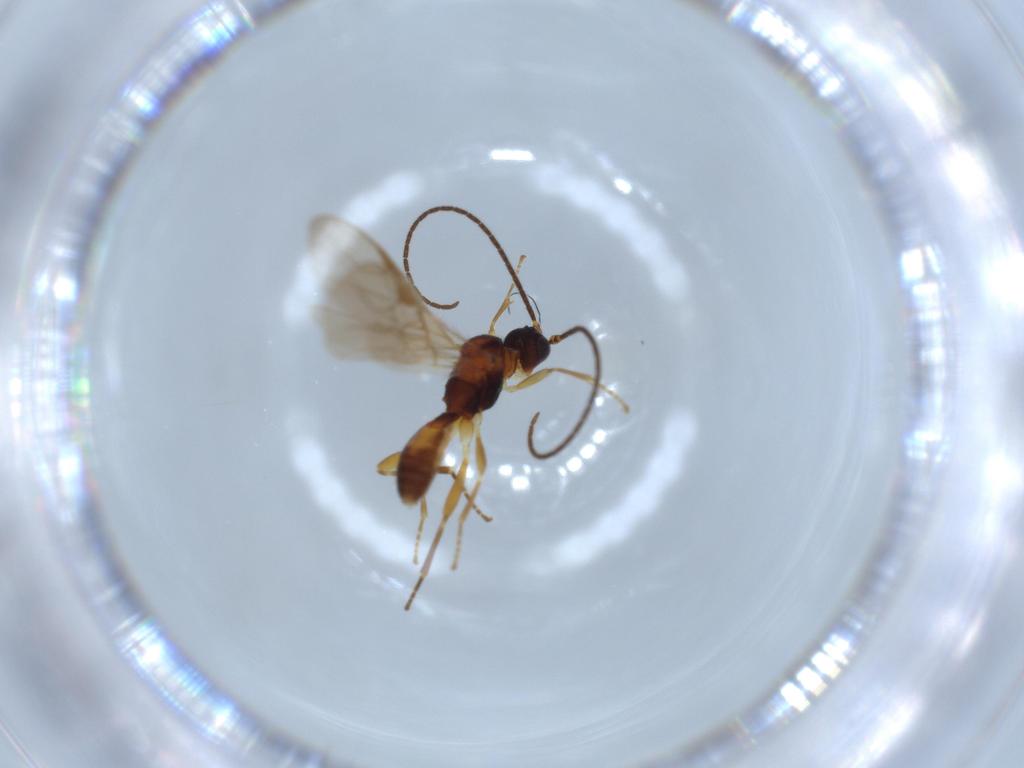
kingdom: Animalia
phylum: Arthropoda
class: Insecta
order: Hymenoptera
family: Braconidae
